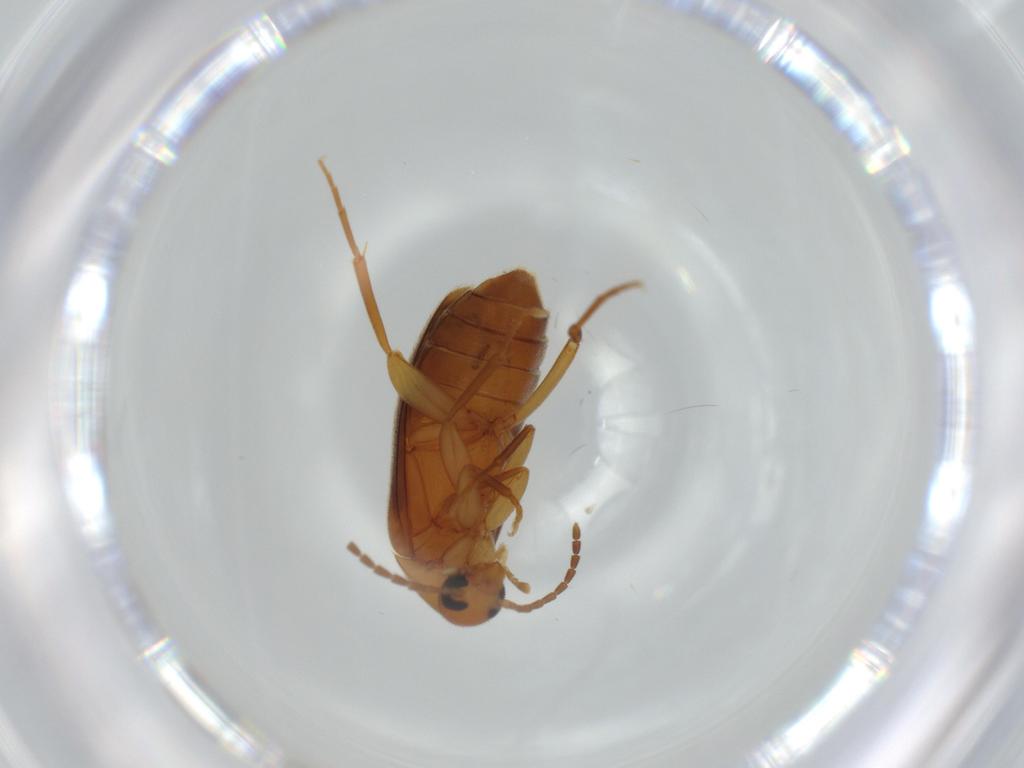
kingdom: Animalia
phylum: Arthropoda
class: Insecta
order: Coleoptera
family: Scraptiidae
